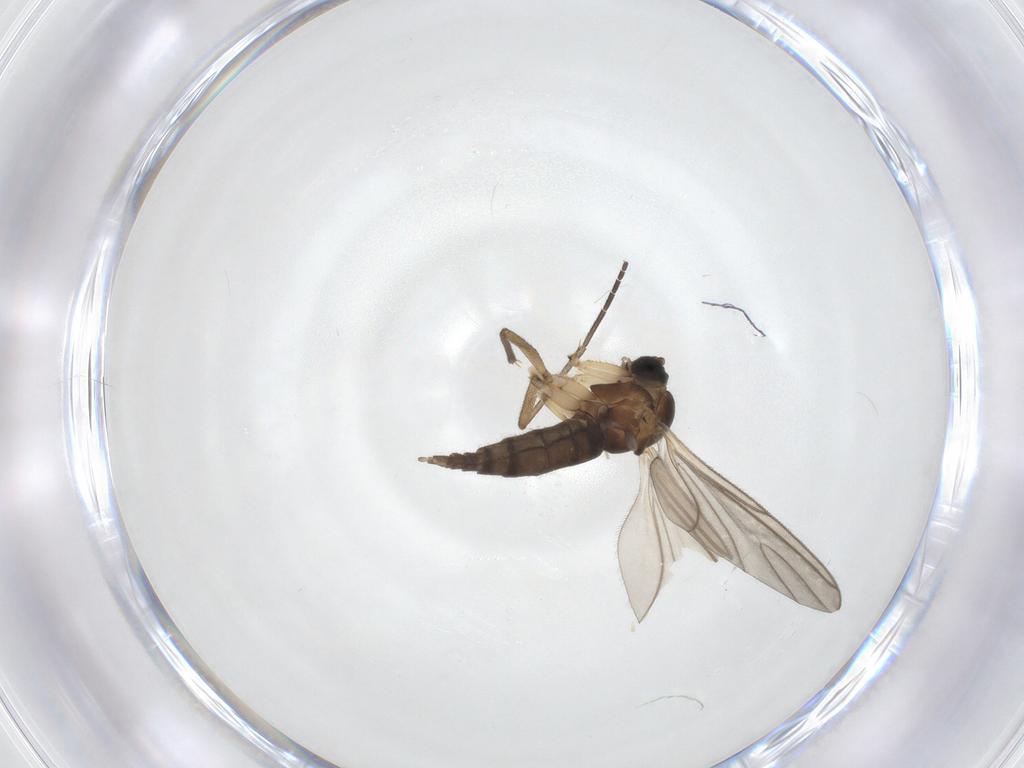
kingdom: Animalia
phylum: Arthropoda
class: Insecta
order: Diptera
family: Sciaridae
